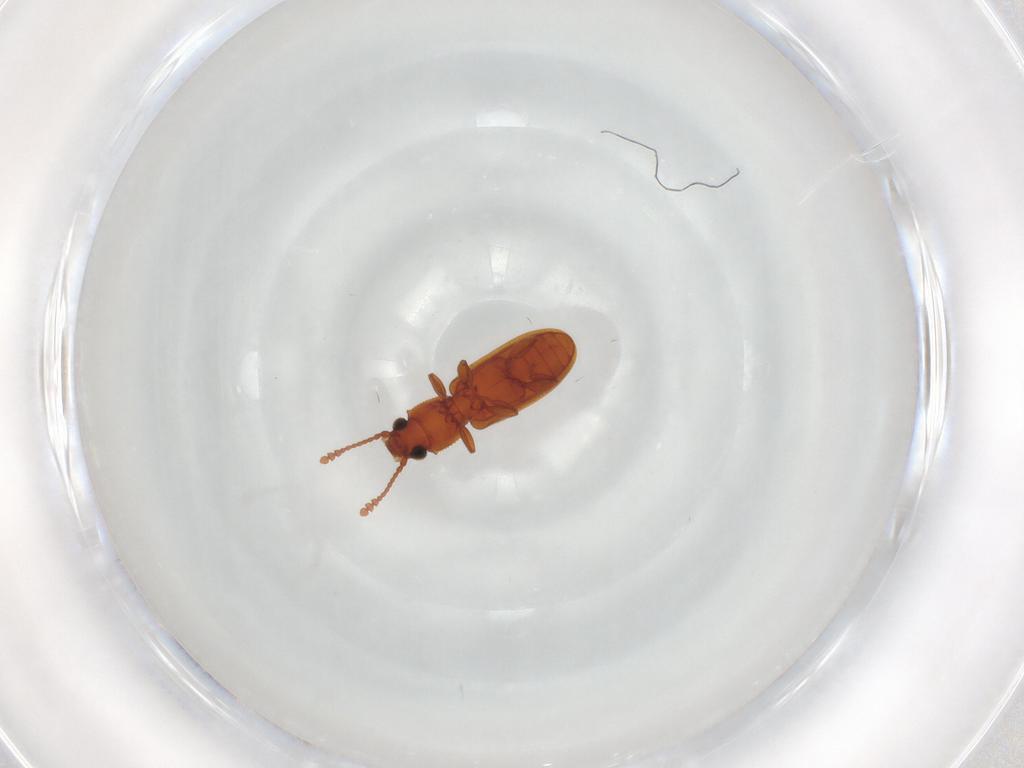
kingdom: Animalia
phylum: Arthropoda
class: Insecta
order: Coleoptera
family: Silvanidae
